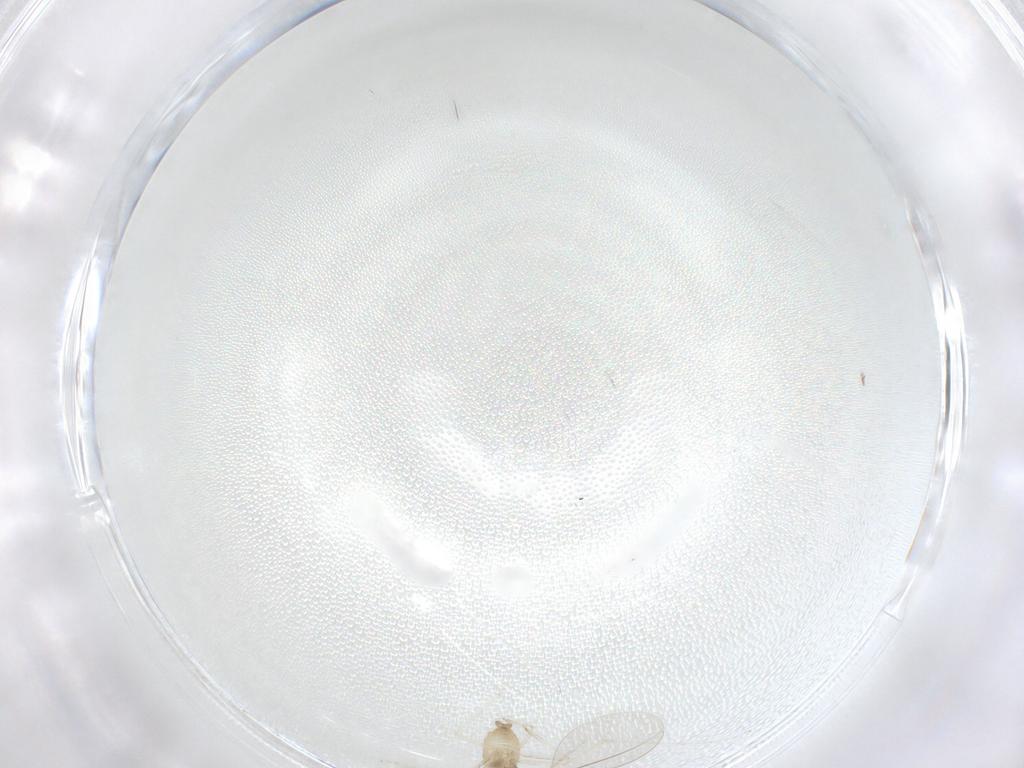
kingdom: Animalia
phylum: Arthropoda
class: Insecta
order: Diptera
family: Cecidomyiidae
